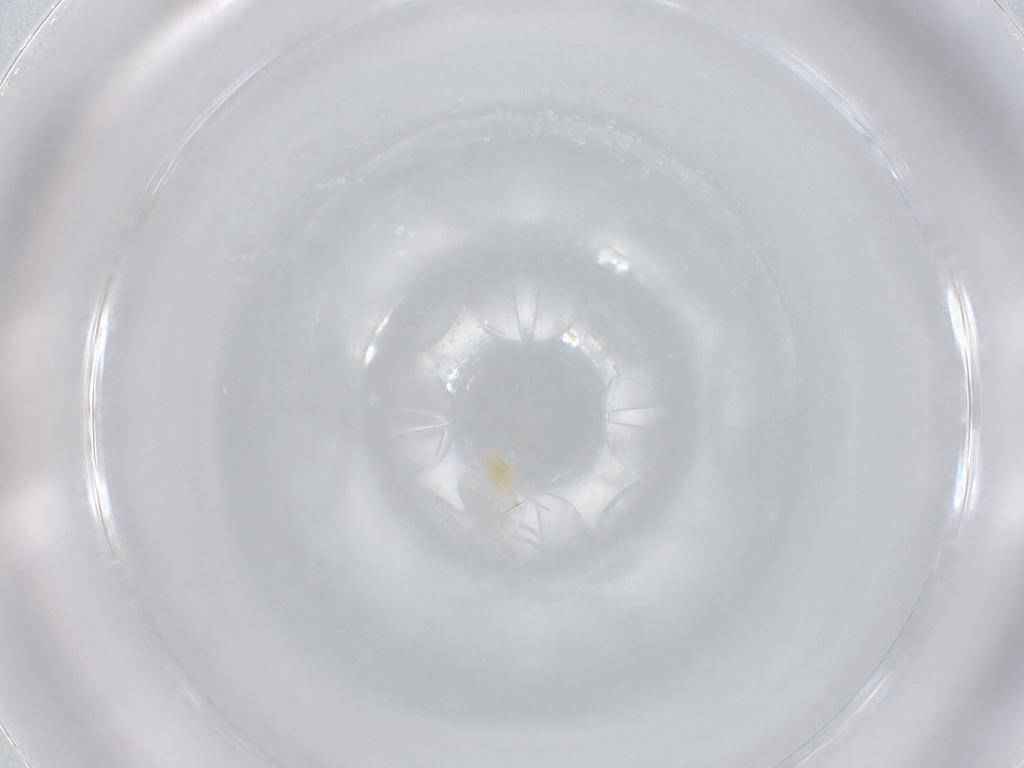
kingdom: Animalia
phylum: Arthropoda
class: Arachnida
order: Mesostigmata
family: Phytoseiidae
